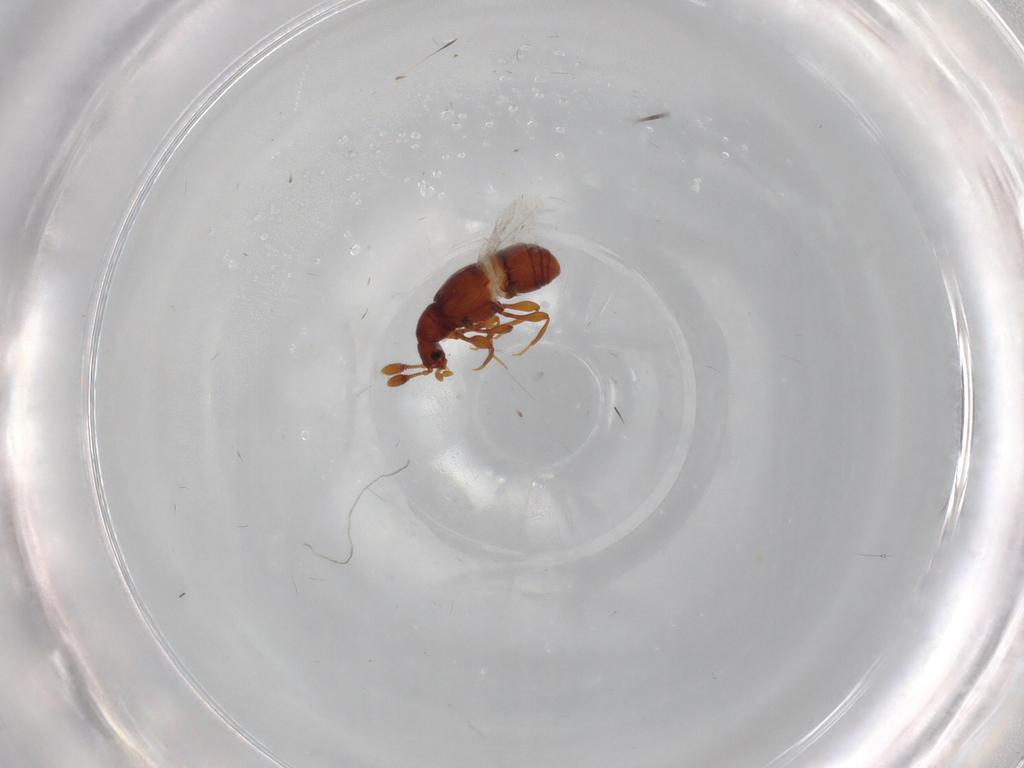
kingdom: Animalia
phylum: Arthropoda
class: Insecta
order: Coleoptera
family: Staphylinidae
